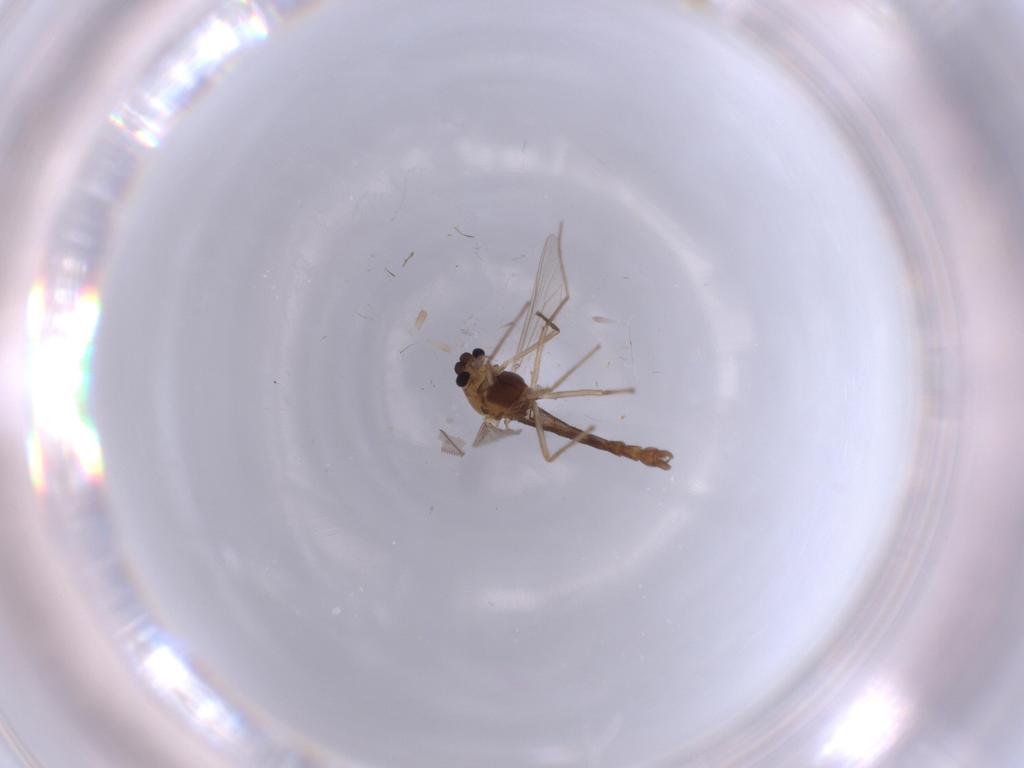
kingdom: Animalia
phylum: Arthropoda
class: Insecta
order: Diptera
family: Chironomidae
